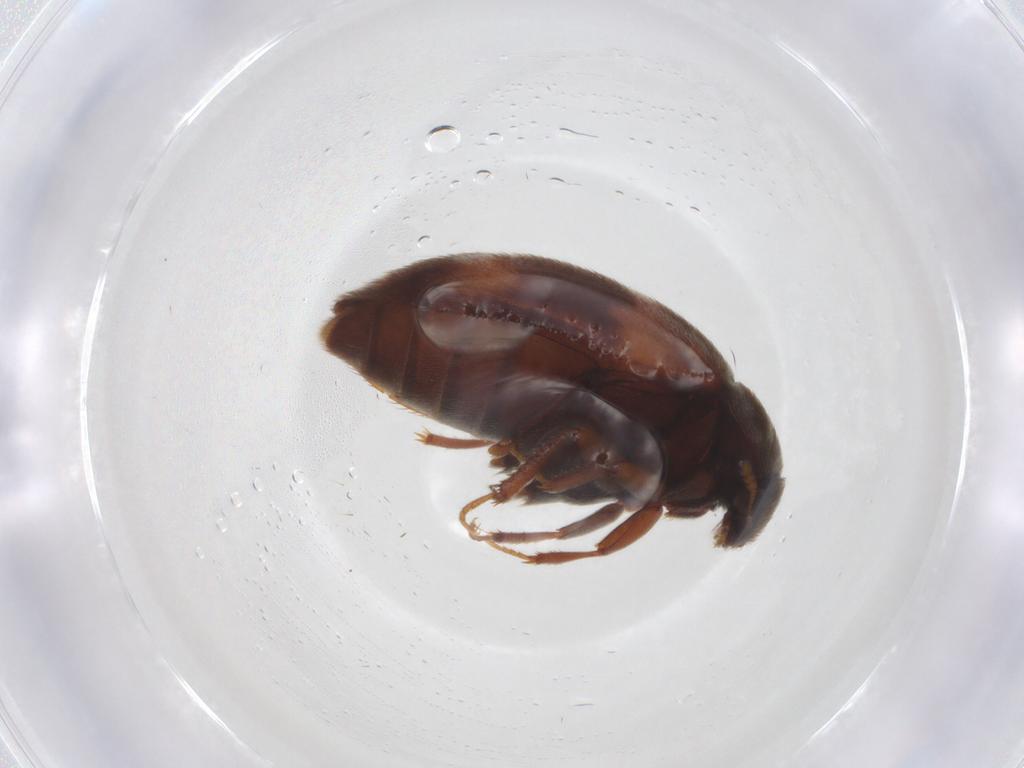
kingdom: Animalia
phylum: Arthropoda
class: Insecta
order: Coleoptera
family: Dermestidae
